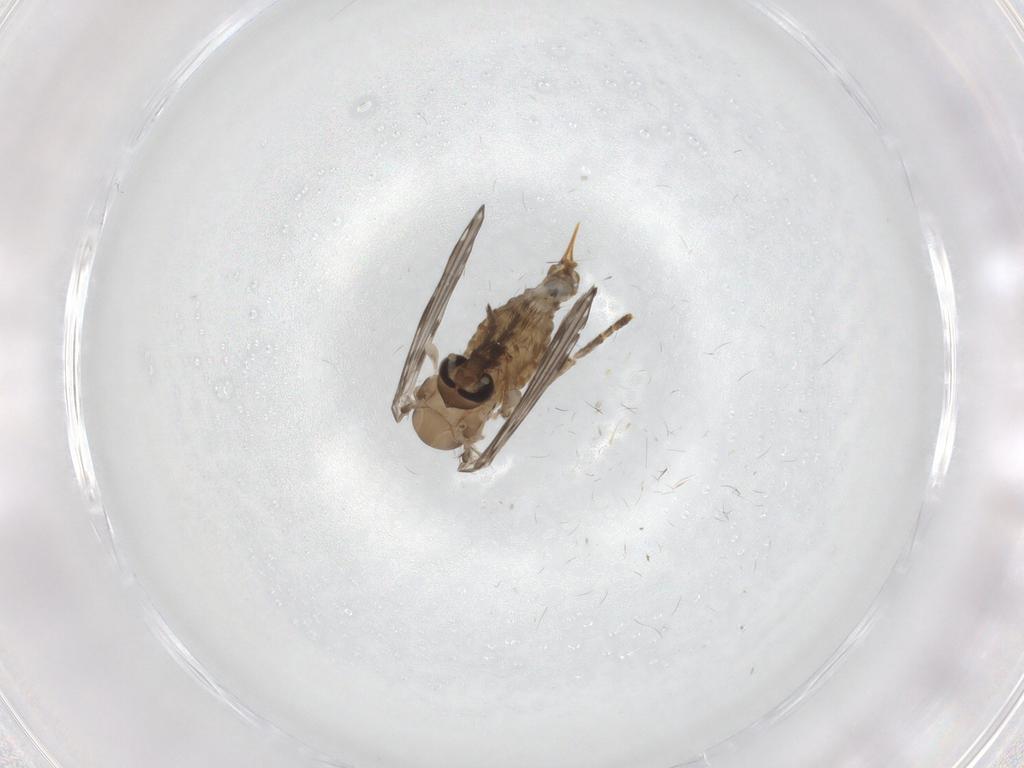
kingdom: Animalia
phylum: Arthropoda
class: Insecta
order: Diptera
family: Psychodidae
